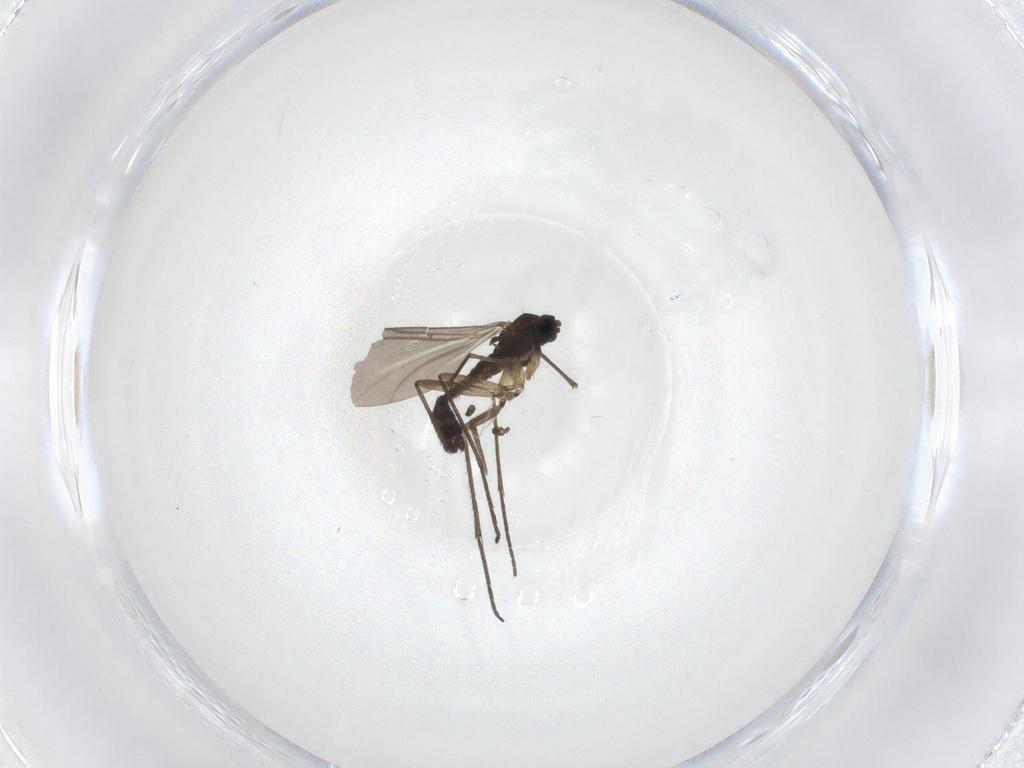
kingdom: Animalia
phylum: Arthropoda
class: Insecta
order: Diptera
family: Sciaridae
